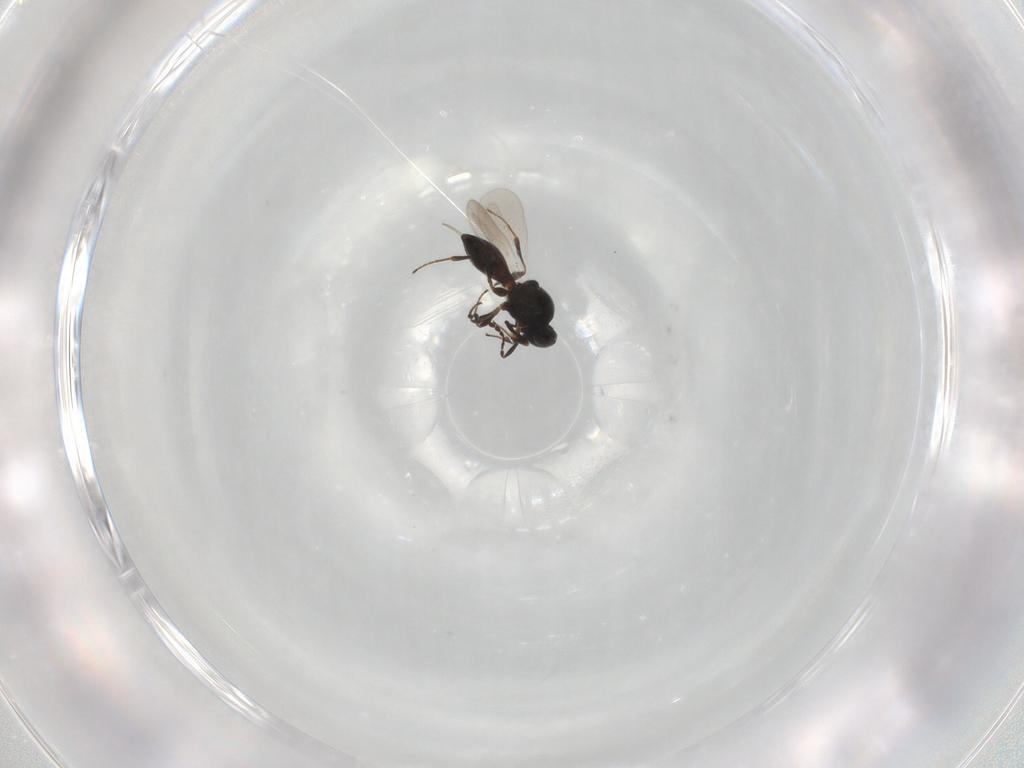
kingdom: Animalia
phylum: Arthropoda
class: Insecta
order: Hymenoptera
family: Platygastridae
